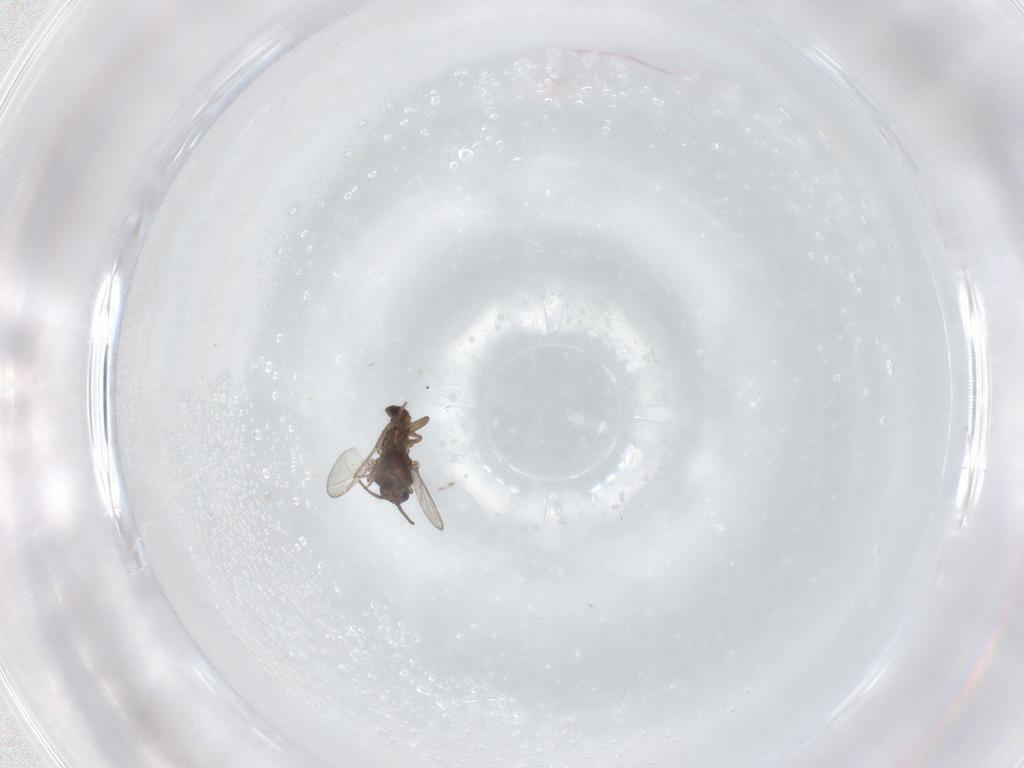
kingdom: Animalia
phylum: Arthropoda
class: Insecta
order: Diptera
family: Ceratopogonidae
